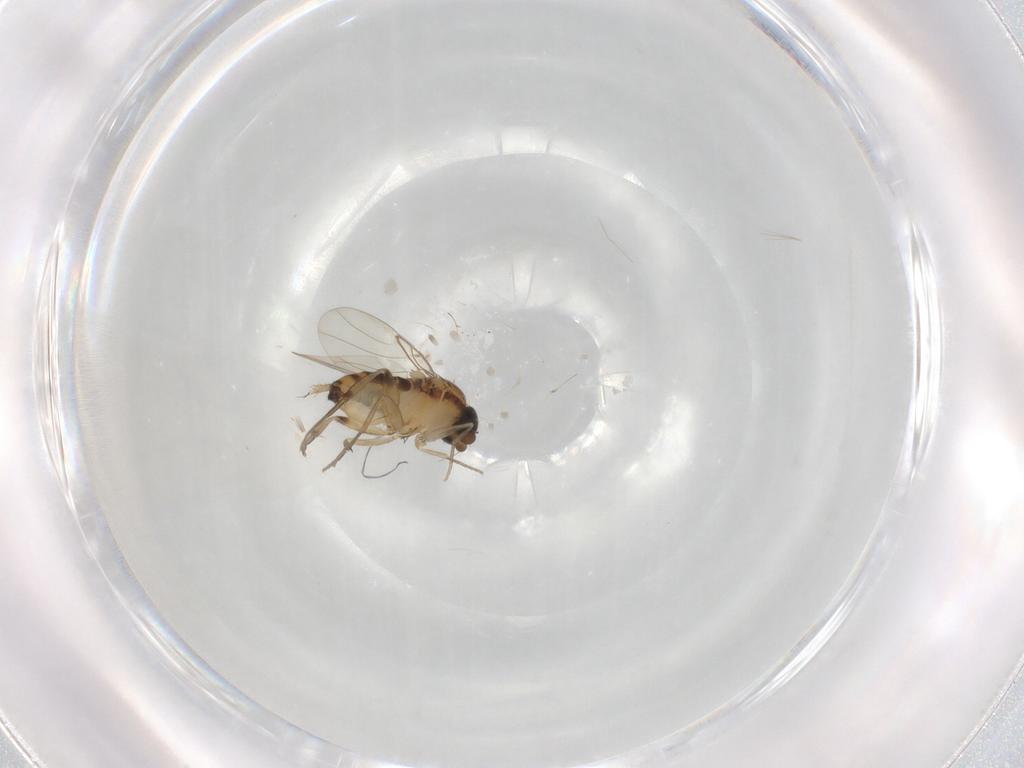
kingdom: Animalia
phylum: Arthropoda
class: Insecta
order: Diptera
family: Phoridae
